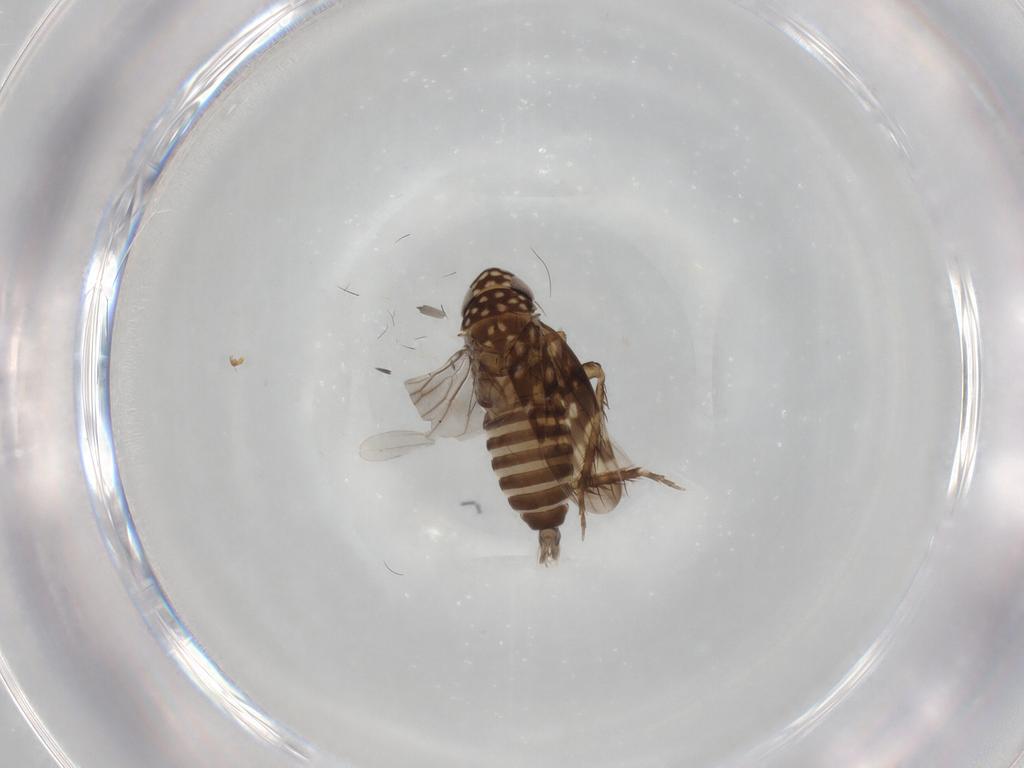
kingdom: Animalia
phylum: Arthropoda
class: Insecta
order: Hemiptera
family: Cicadellidae
